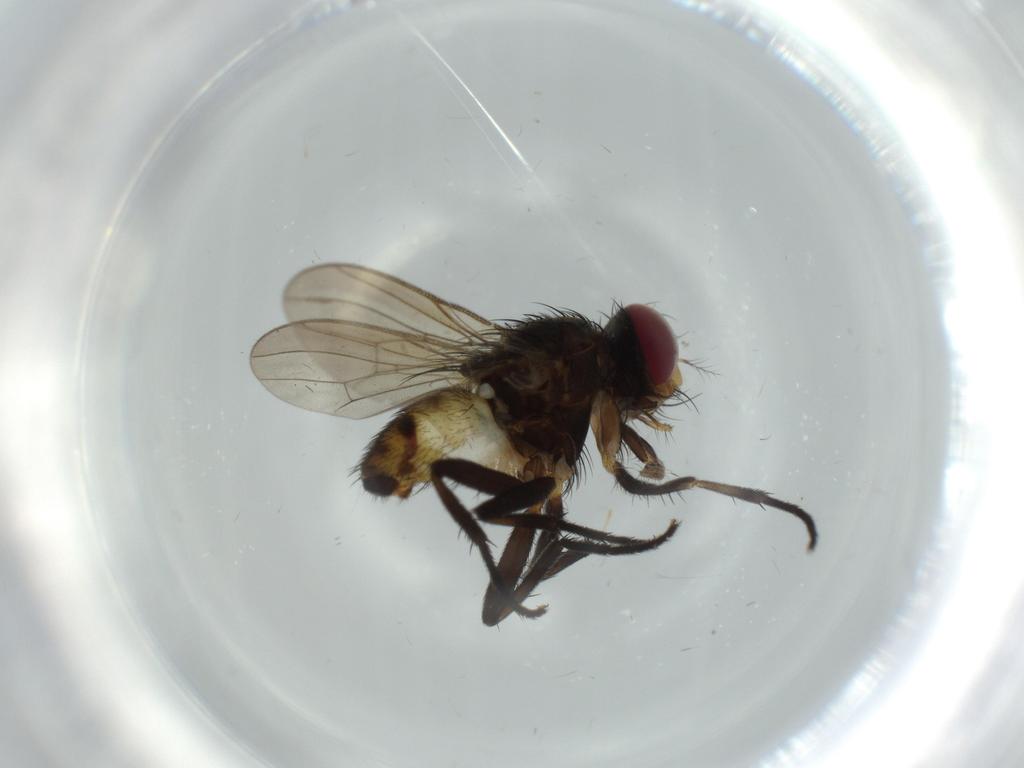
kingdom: Animalia
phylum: Arthropoda
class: Insecta
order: Diptera
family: Anthomyiidae
